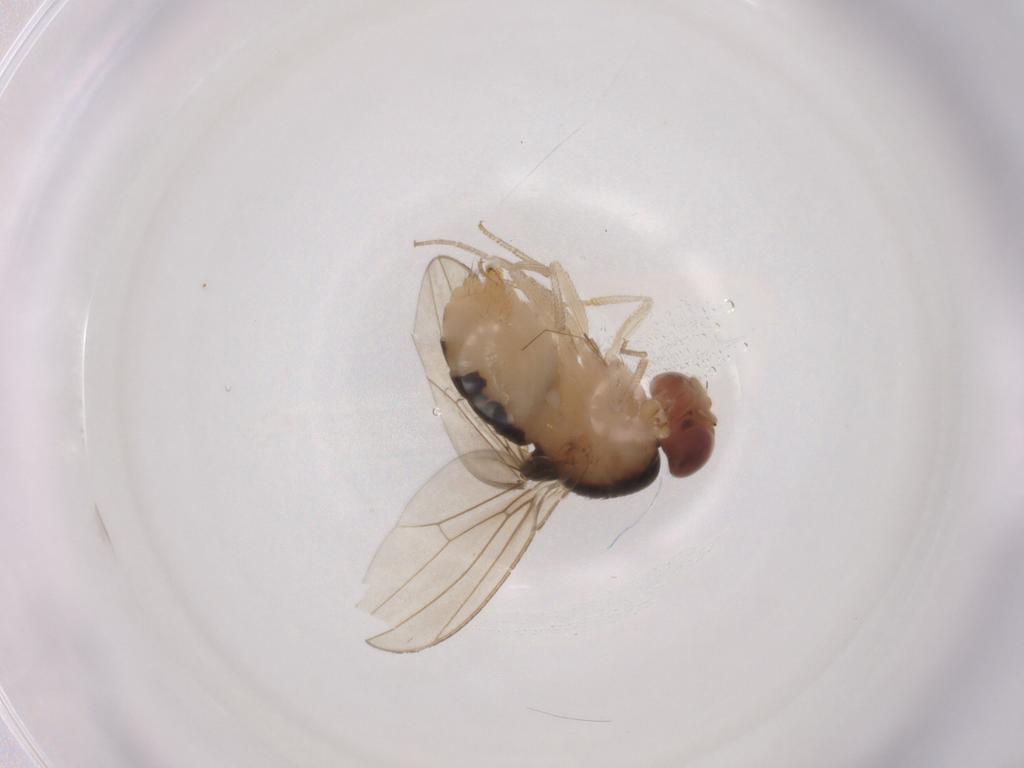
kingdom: Animalia
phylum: Arthropoda
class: Insecta
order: Diptera
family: Drosophilidae
